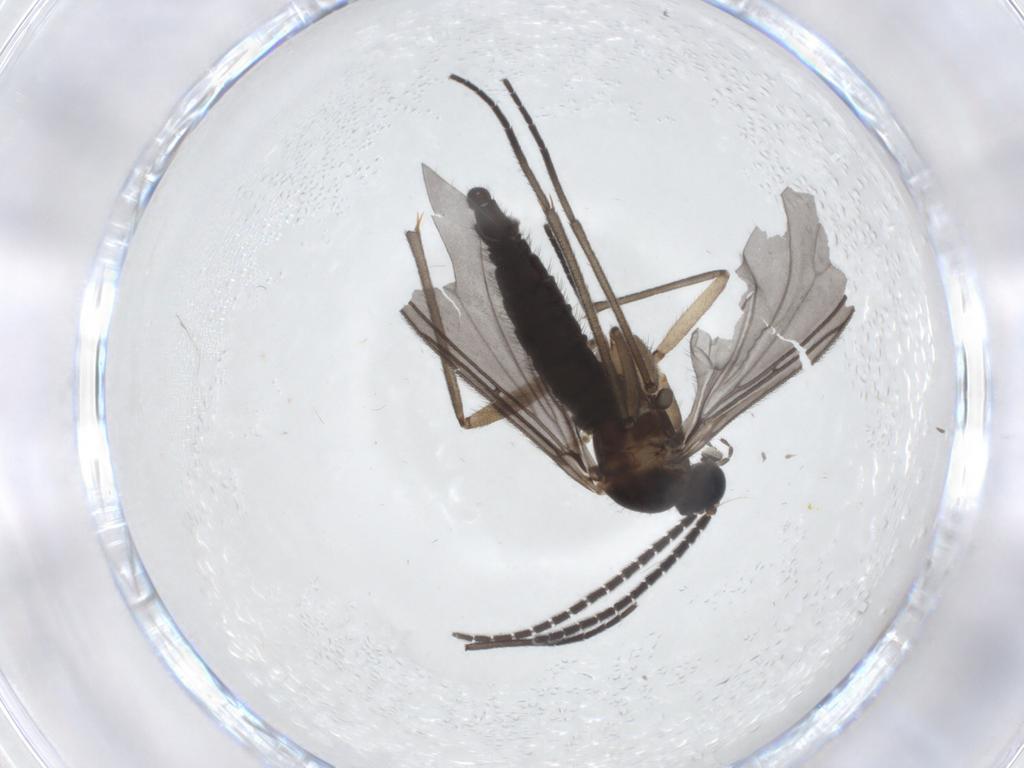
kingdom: Animalia
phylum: Arthropoda
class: Insecta
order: Diptera
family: Sciaridae
